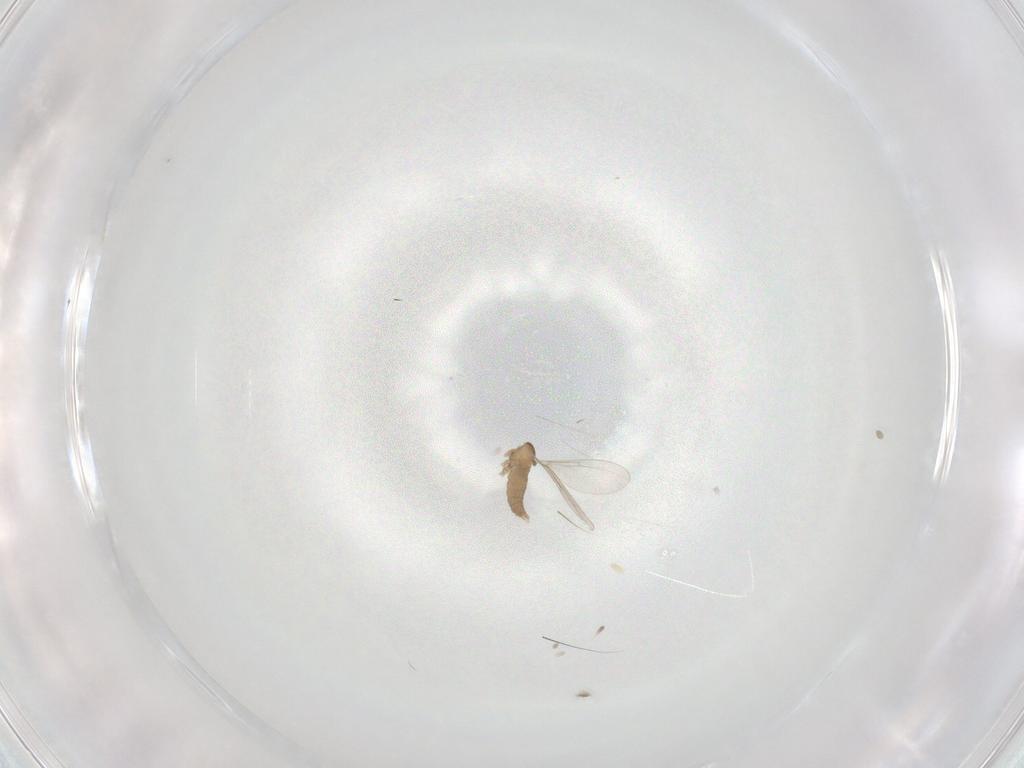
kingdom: Animalia
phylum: Arthropoda
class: Insecta
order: Diptera
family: Cecidomyiidae
